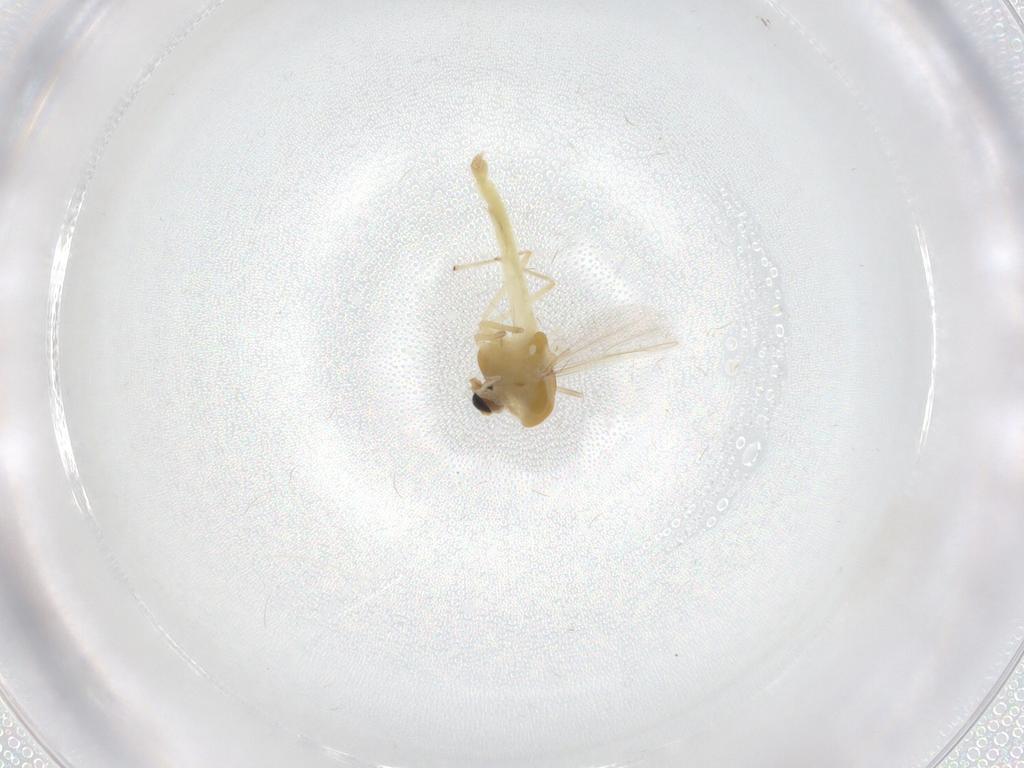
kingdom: Animalia
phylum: Arthropoda
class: Insecta
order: Diptera
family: Chironomidae
